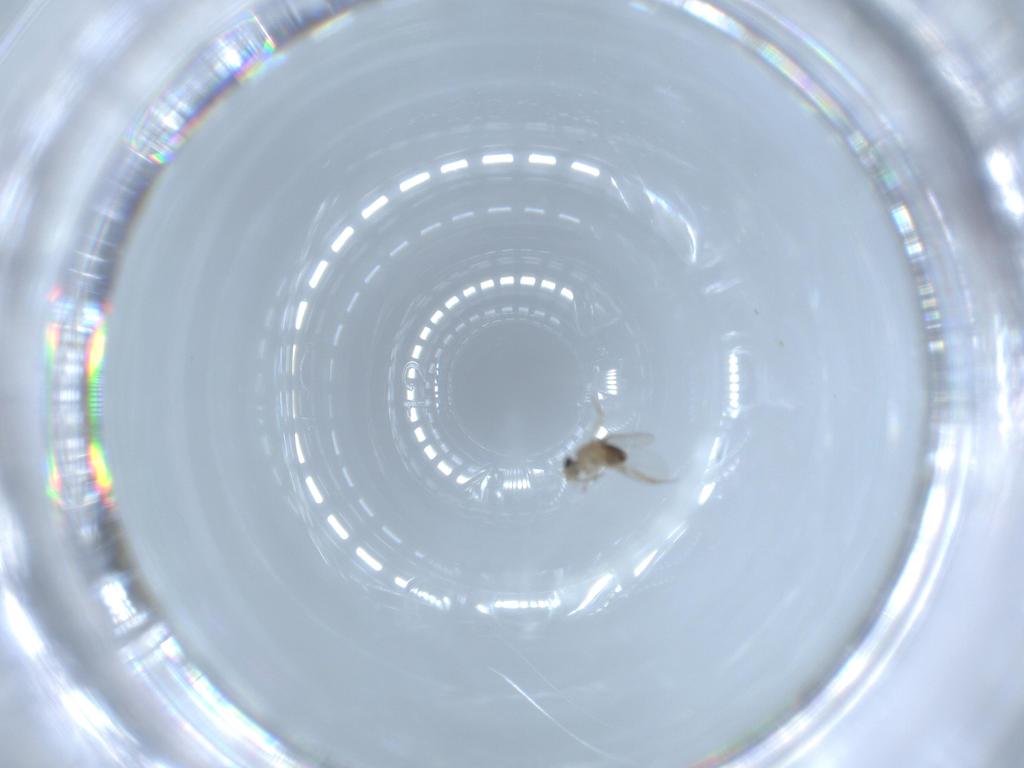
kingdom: Animalia
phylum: Arthropoda
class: Insecta
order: Diptera
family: Phoridae
